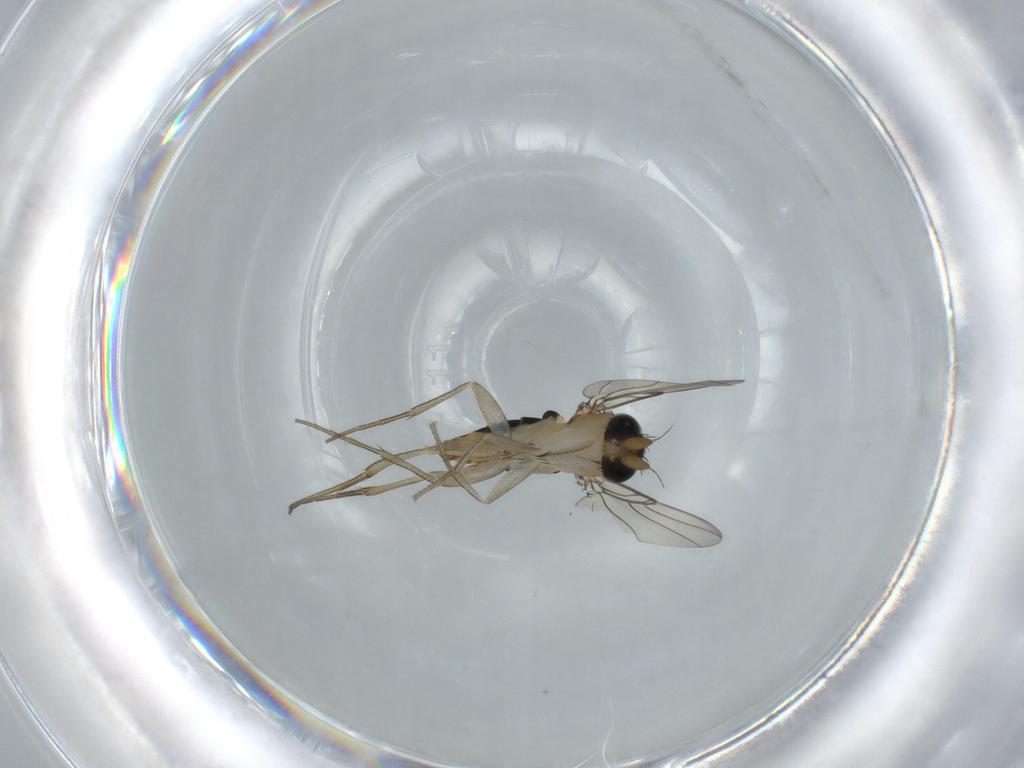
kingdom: Animalia
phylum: Arthropoda
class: Insecta
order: Diptera
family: Phoridae
